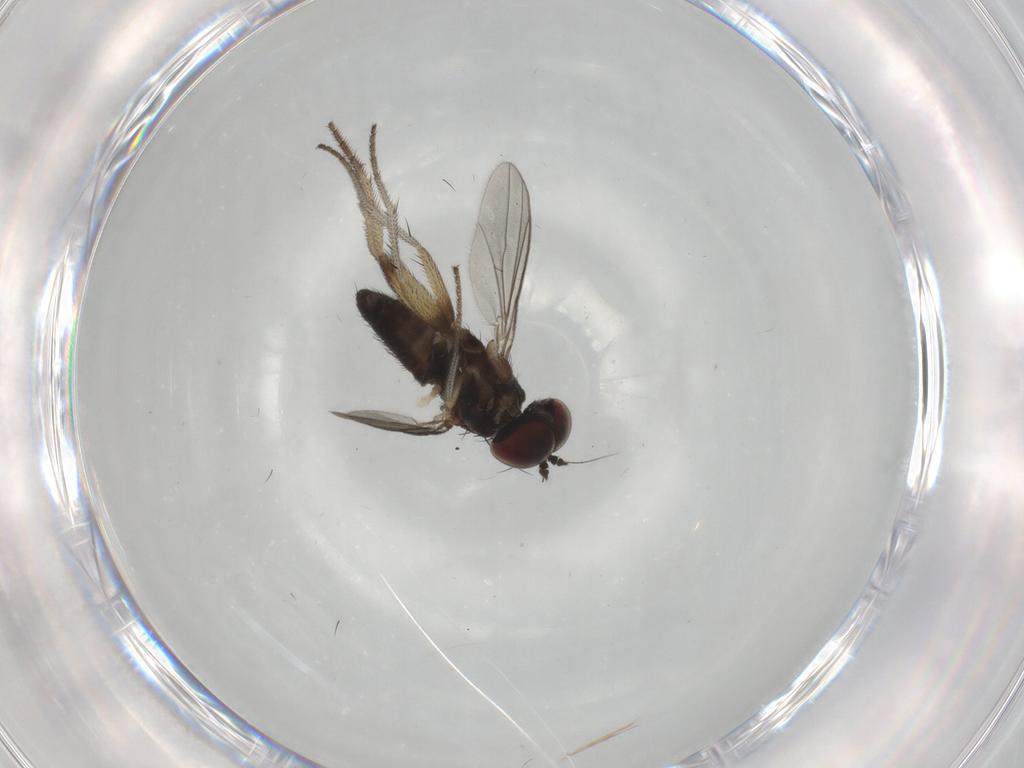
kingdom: Animalia
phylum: Arthropoda
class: Insecta
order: Diptera
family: Dolichopodidae
